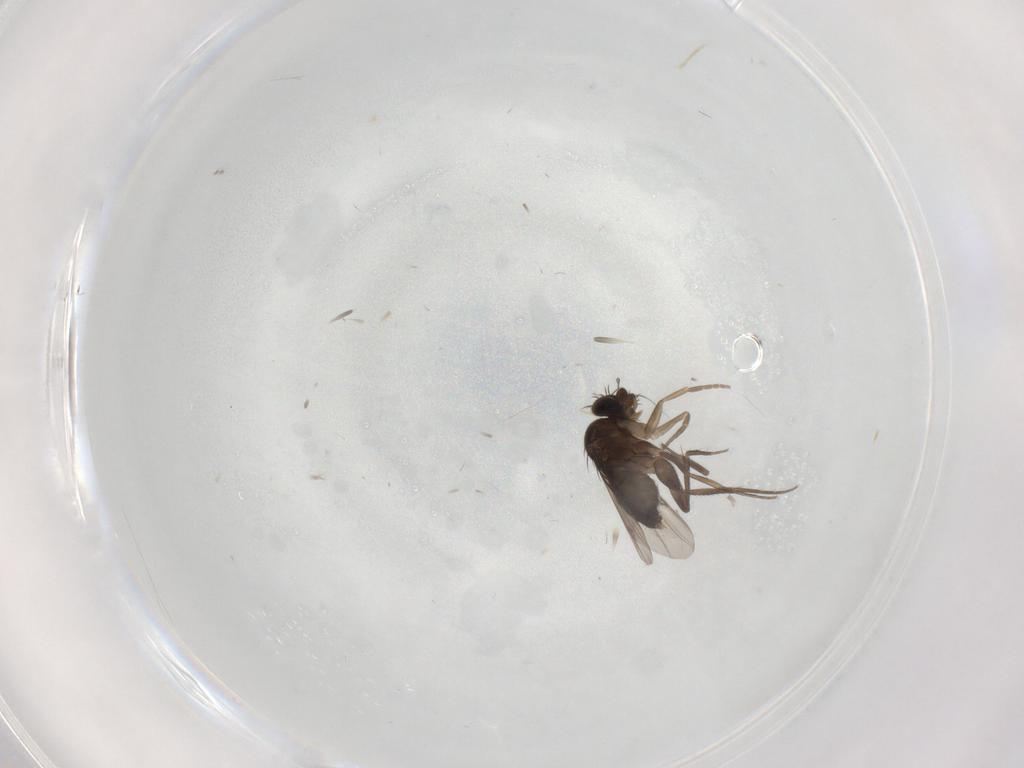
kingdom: Animalia
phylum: Arthropoda
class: Insecta
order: Diptera
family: Phoridae
